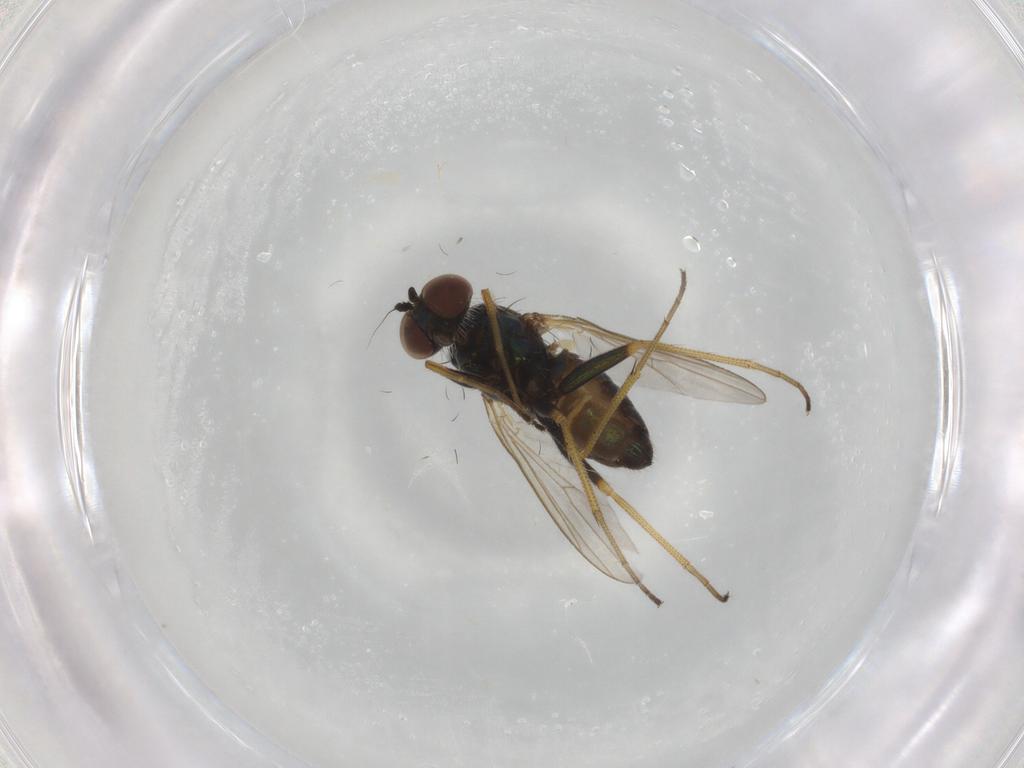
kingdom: Animalia
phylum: Arthropoda
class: Insecta
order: Diptera
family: Dolichopodidae
